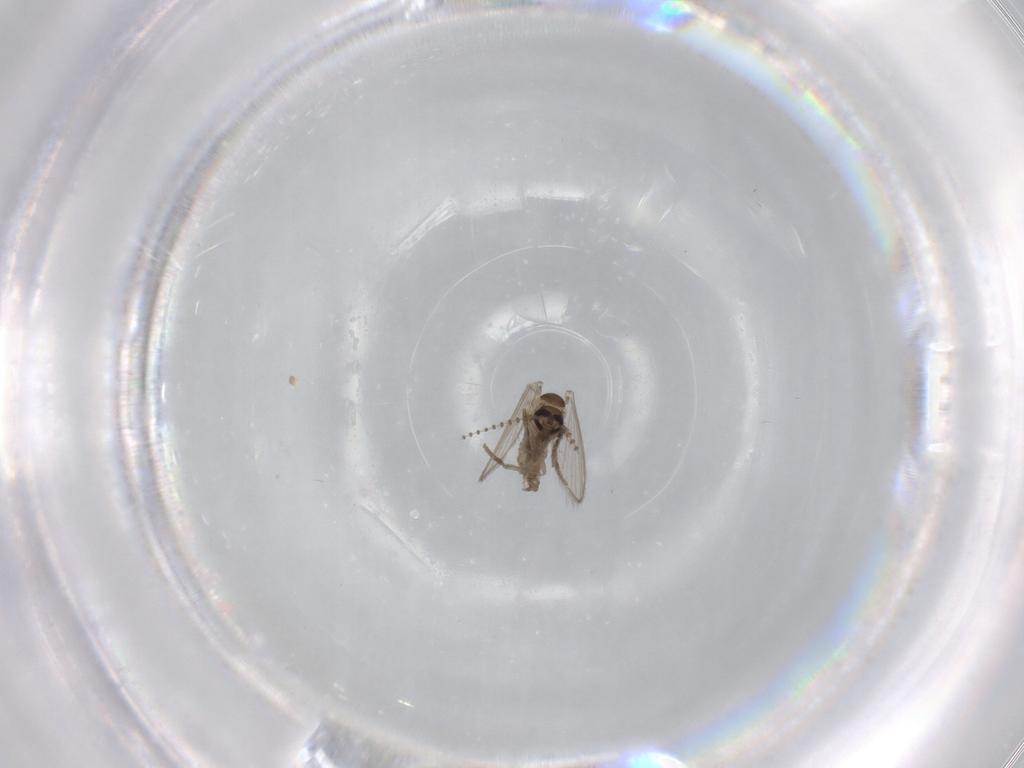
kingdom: Animalia
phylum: Arthropoda
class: Insecta
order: Diptera
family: Psychodidae
